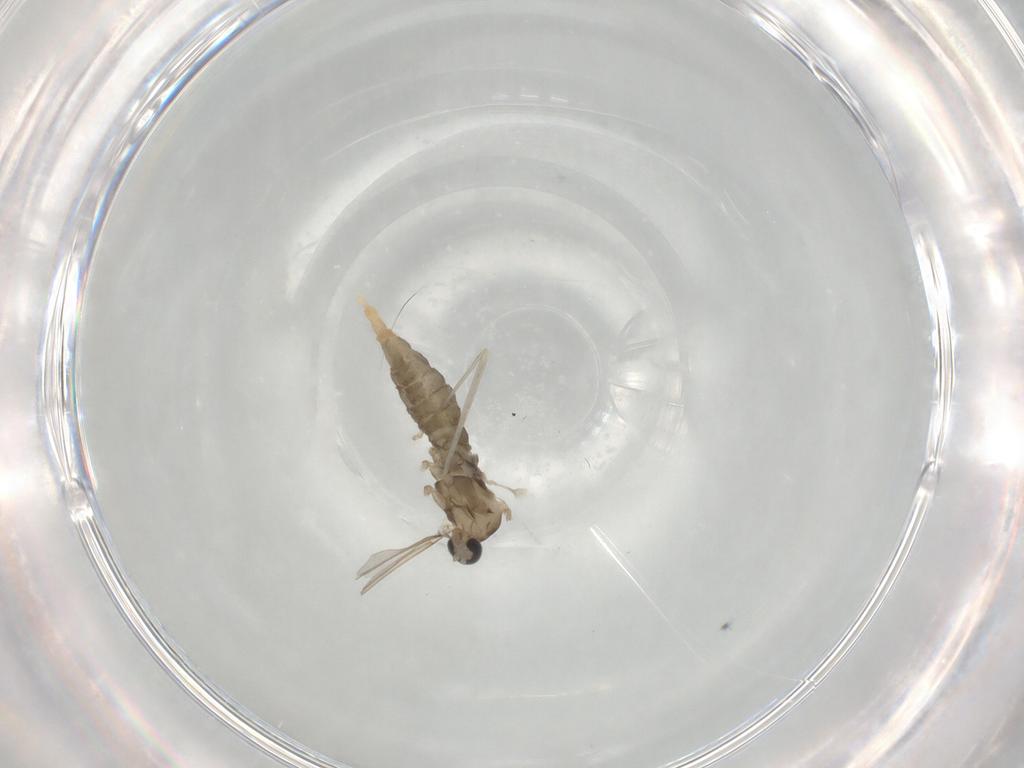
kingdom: Animalia
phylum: Arthropoda
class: Insecta
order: Diptera
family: Cecidomyiidae
